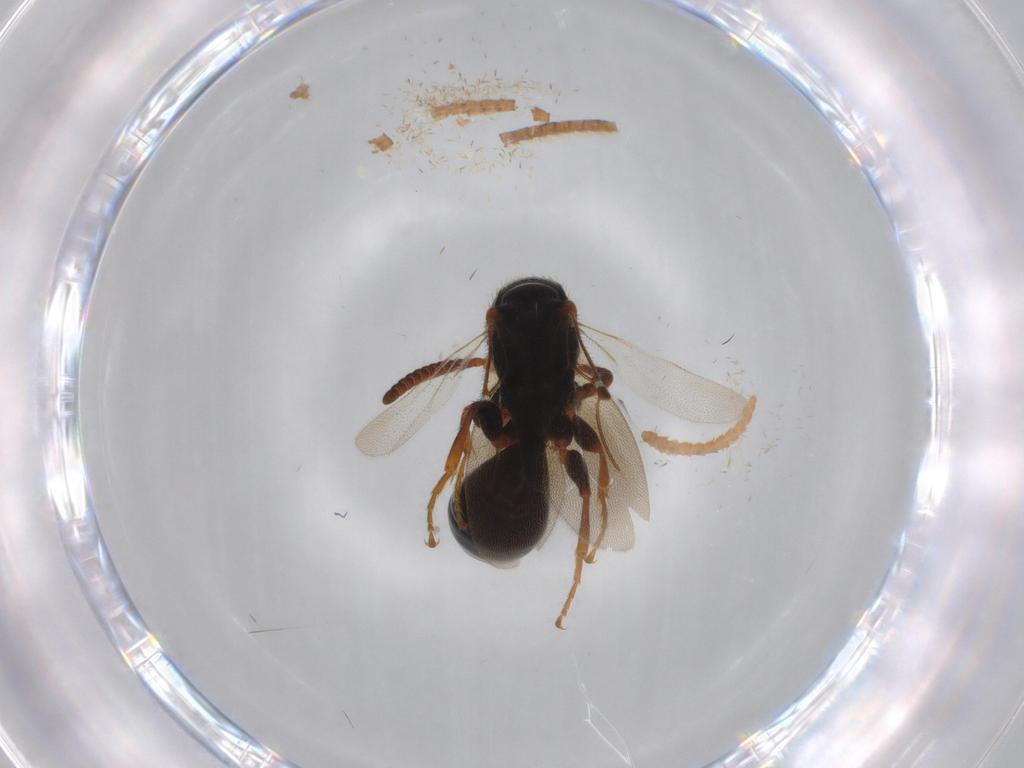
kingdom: Animalia
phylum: Arthropoda
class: Insecta
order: Hymenoptera
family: Bethylidae
